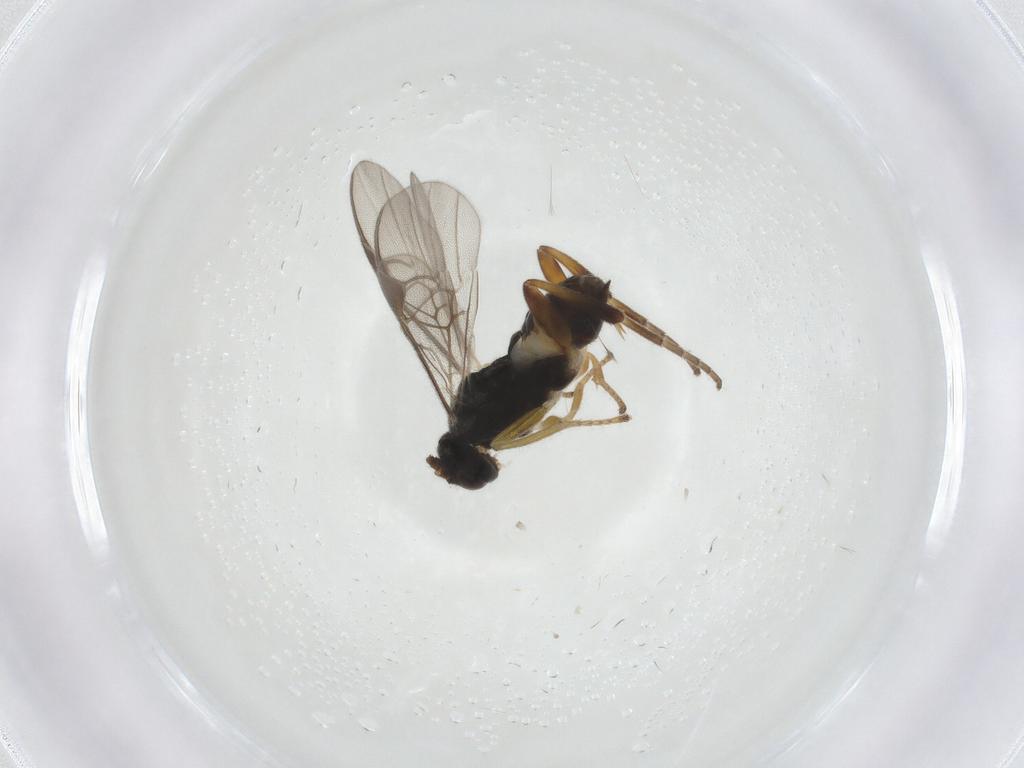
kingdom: Animalia
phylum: Arthropoda
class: Insecta
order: Hymenoptera
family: Braconidae
